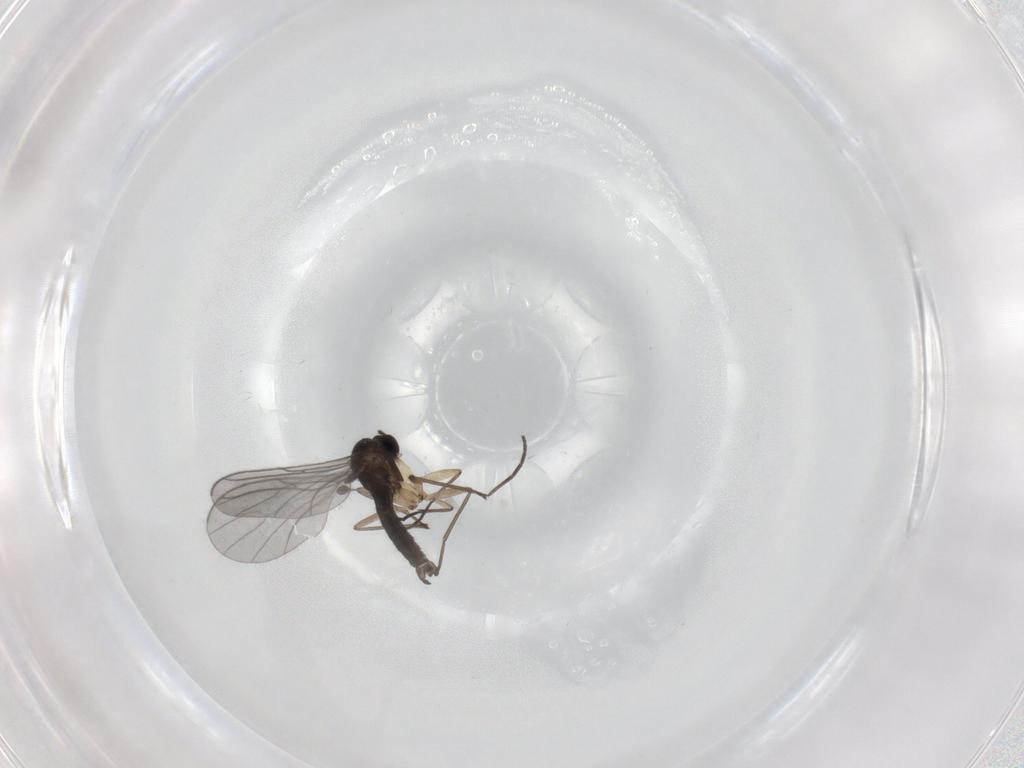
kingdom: Animalia
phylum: Arthropoda
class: Insecta
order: Diptera
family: Sciaridae
